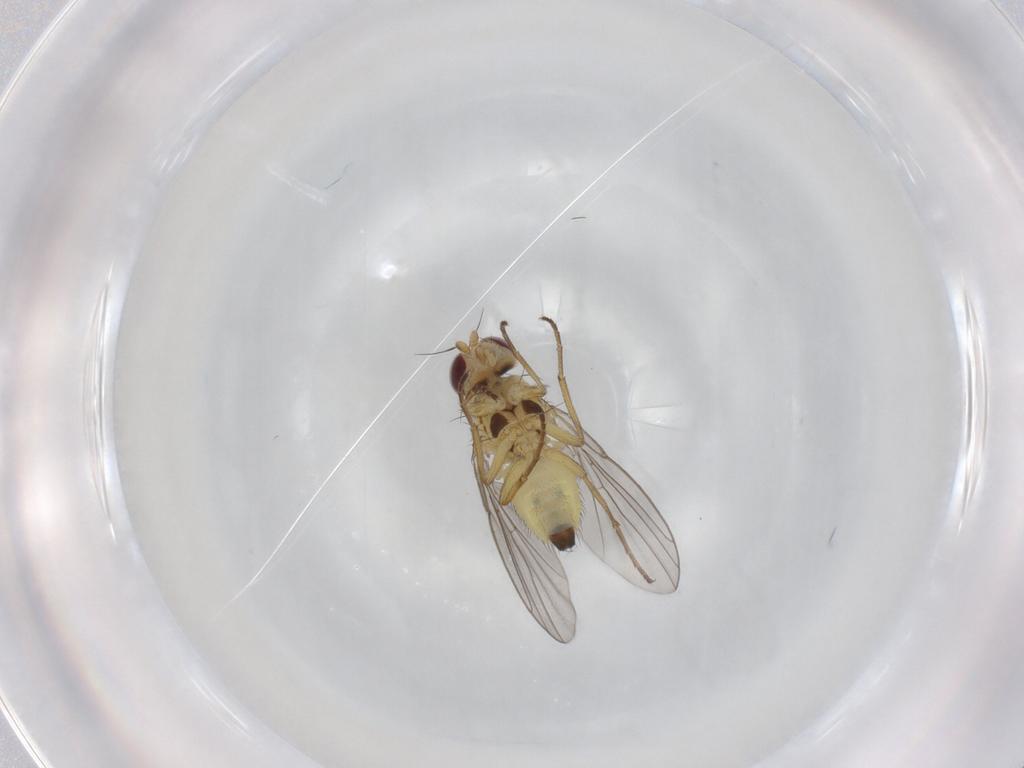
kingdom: Animalia
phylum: Arthropoda
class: Insecta
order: Diptera
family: Agromyzidae
